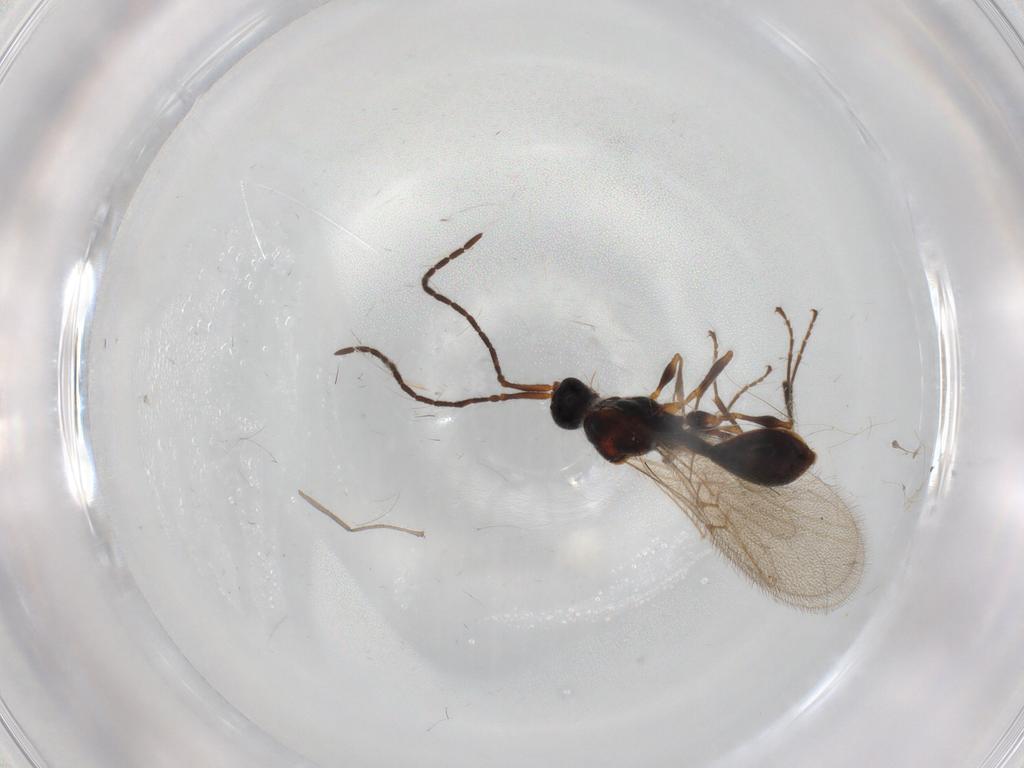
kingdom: Animalia
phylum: Arthropoda
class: Insecta
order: Hymenoptera
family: Diapriidae
